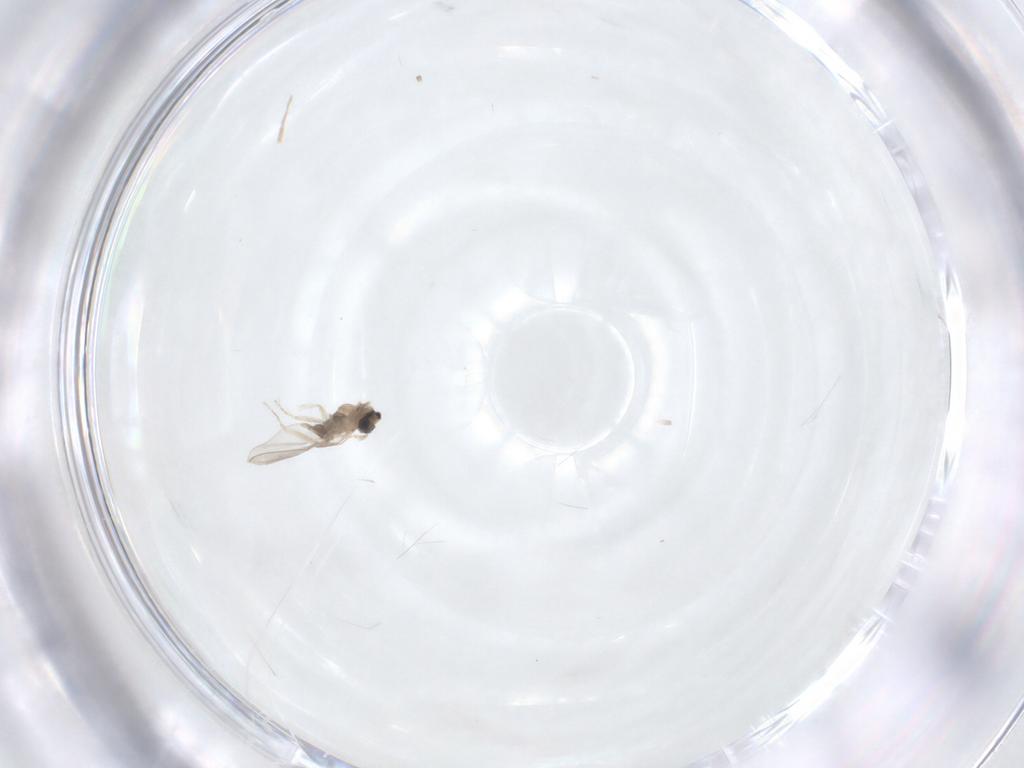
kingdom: Animalia
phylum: Arthropoda
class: Insecta
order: Diptera
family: Cecidomyiidae
